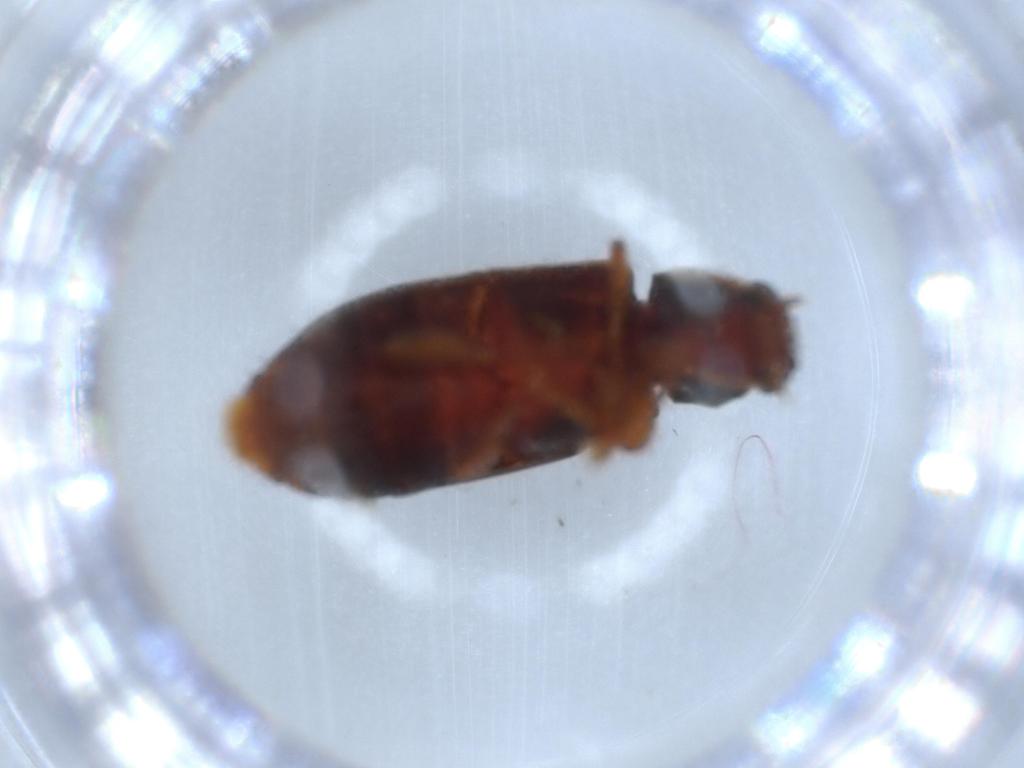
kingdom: Animalia
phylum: Arthropoda
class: Insecta
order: Coleoptera
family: Mycteridae
